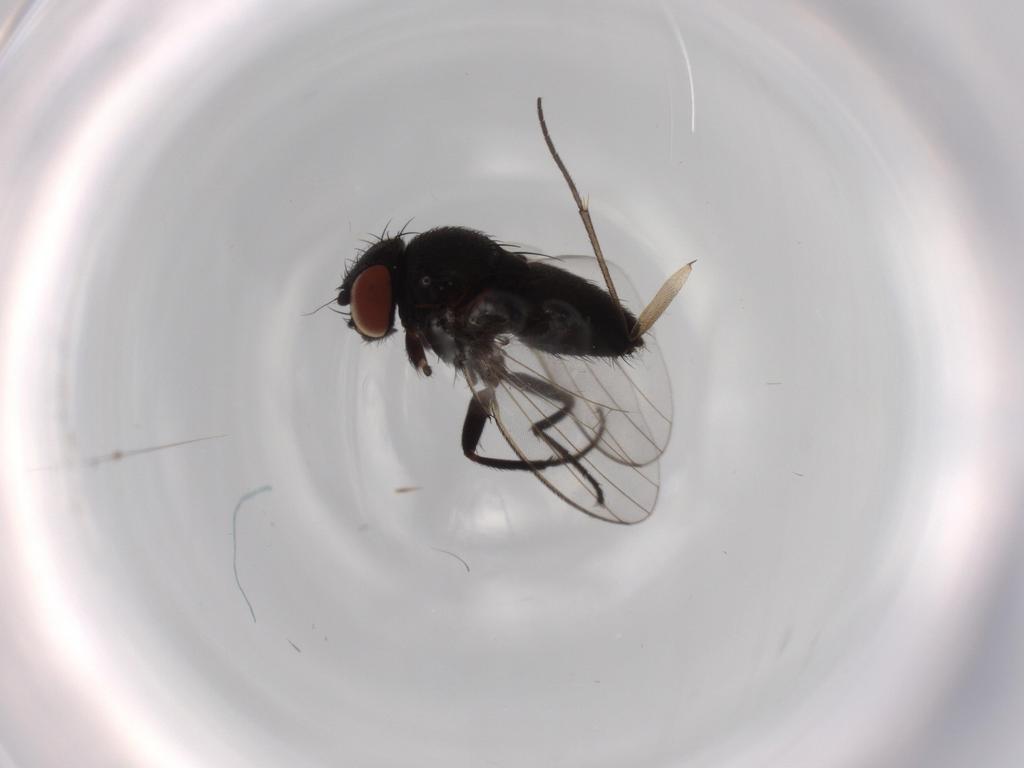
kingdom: Animalia
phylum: Arthropoda
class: Insecta
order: Diptera
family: Milichiidae
